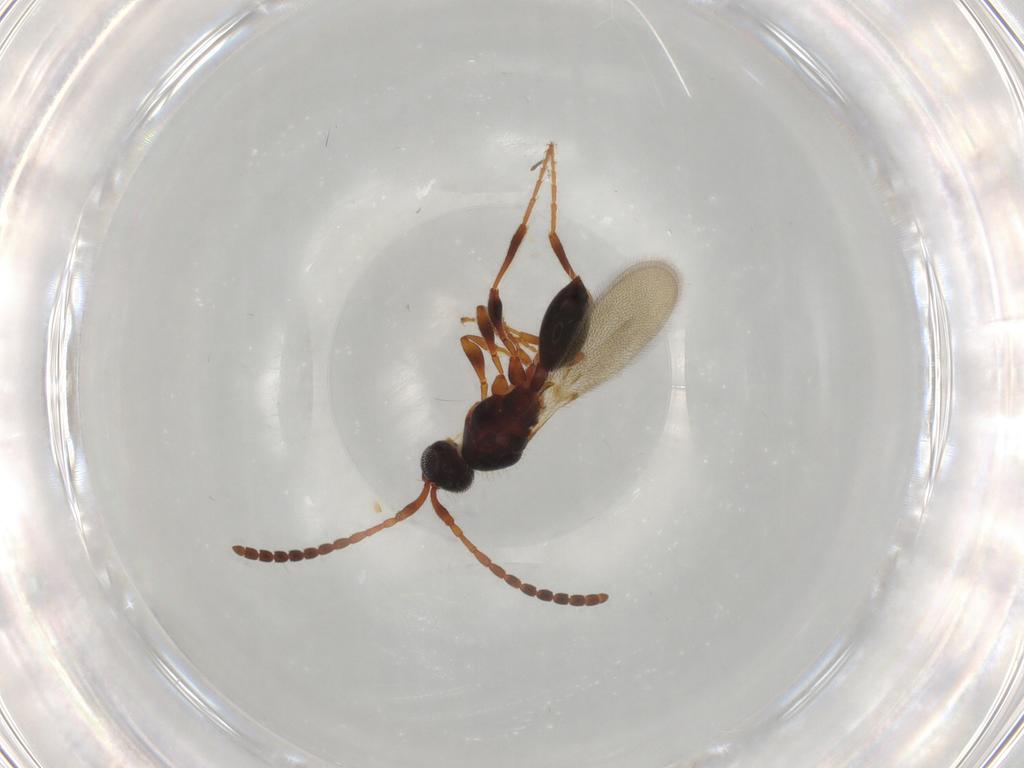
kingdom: Animalia
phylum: Arthropoda
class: Insecta
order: Hymenoptera
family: Diapriidae
